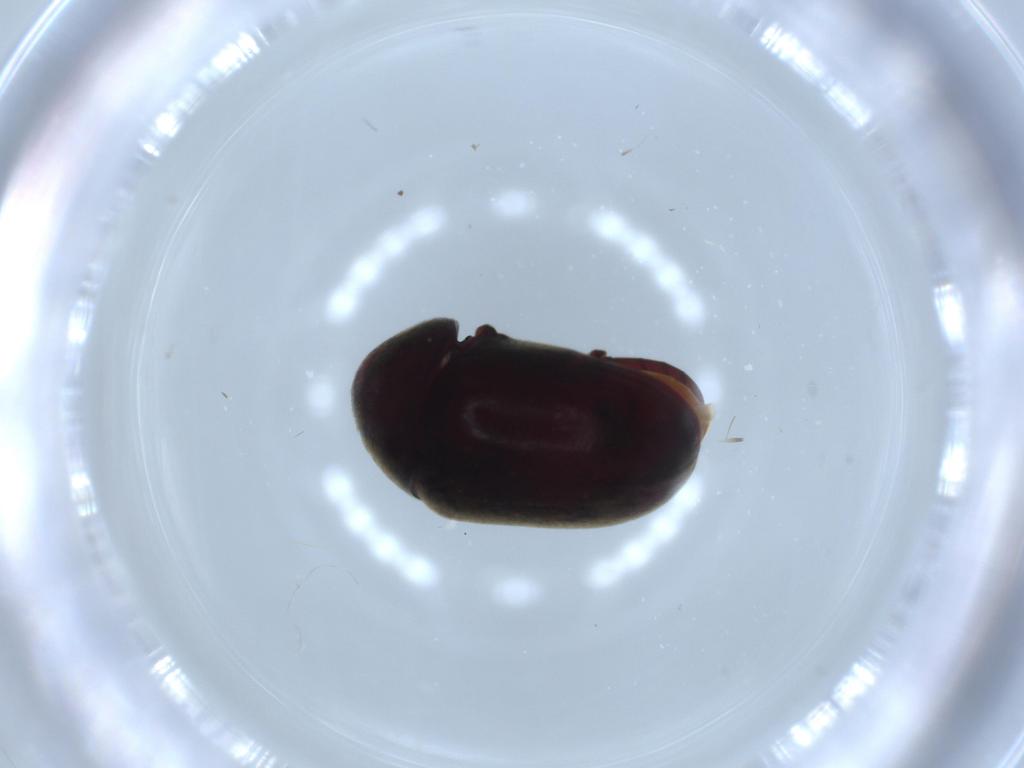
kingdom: Animalia
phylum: Arthropoda
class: Insecta
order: Coleoptera
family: Ptinidae
